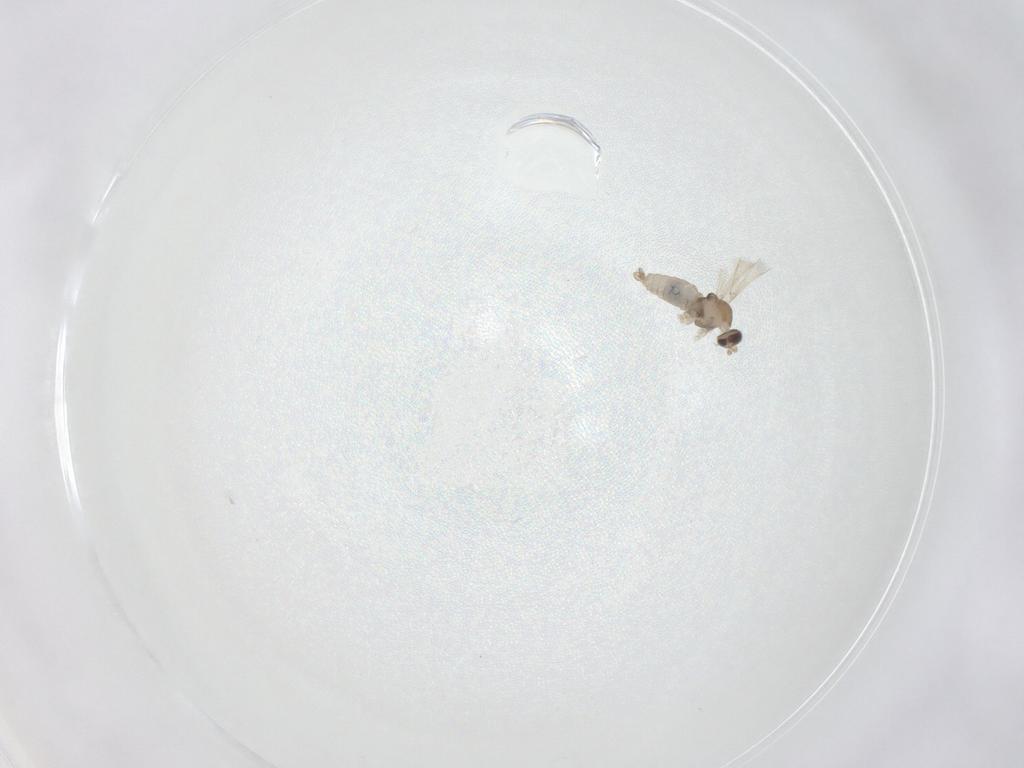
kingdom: Animalia
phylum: Arthropoda
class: Insecta
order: Diptera
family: Cecidomyiidae
